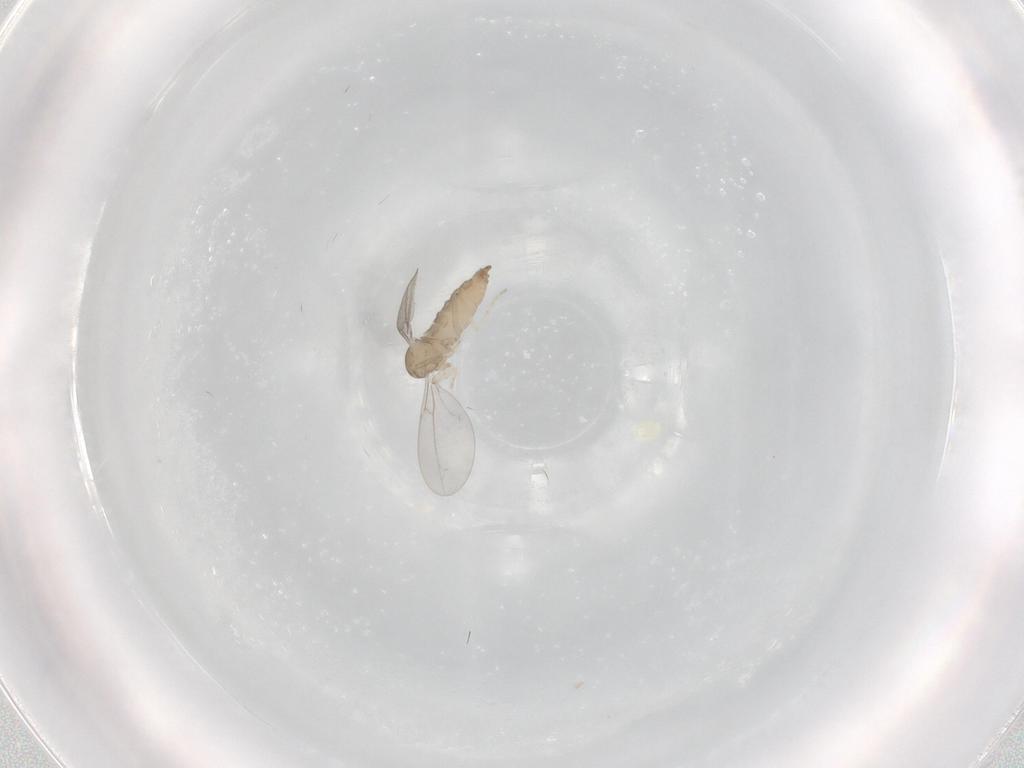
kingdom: Animalia
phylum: Arthropoda
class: Insecta
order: Diptera
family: Cecidomyiidae
